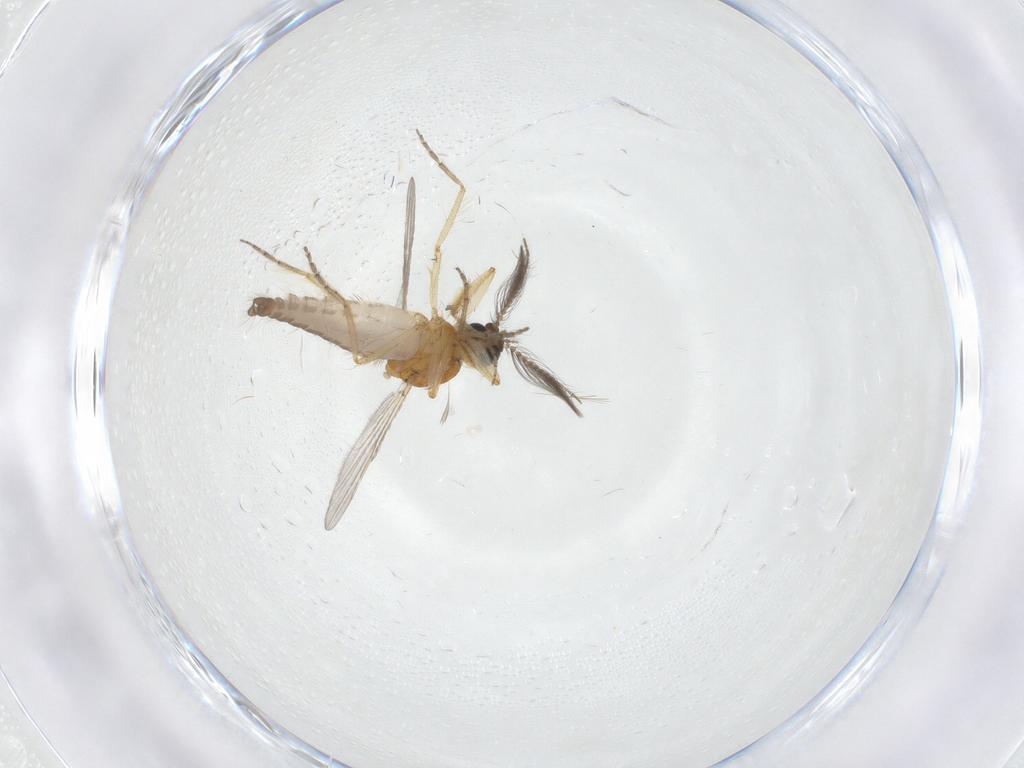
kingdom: Animalia
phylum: Arthropoda
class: Insecta
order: Diptera
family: Ceratopogonidae
